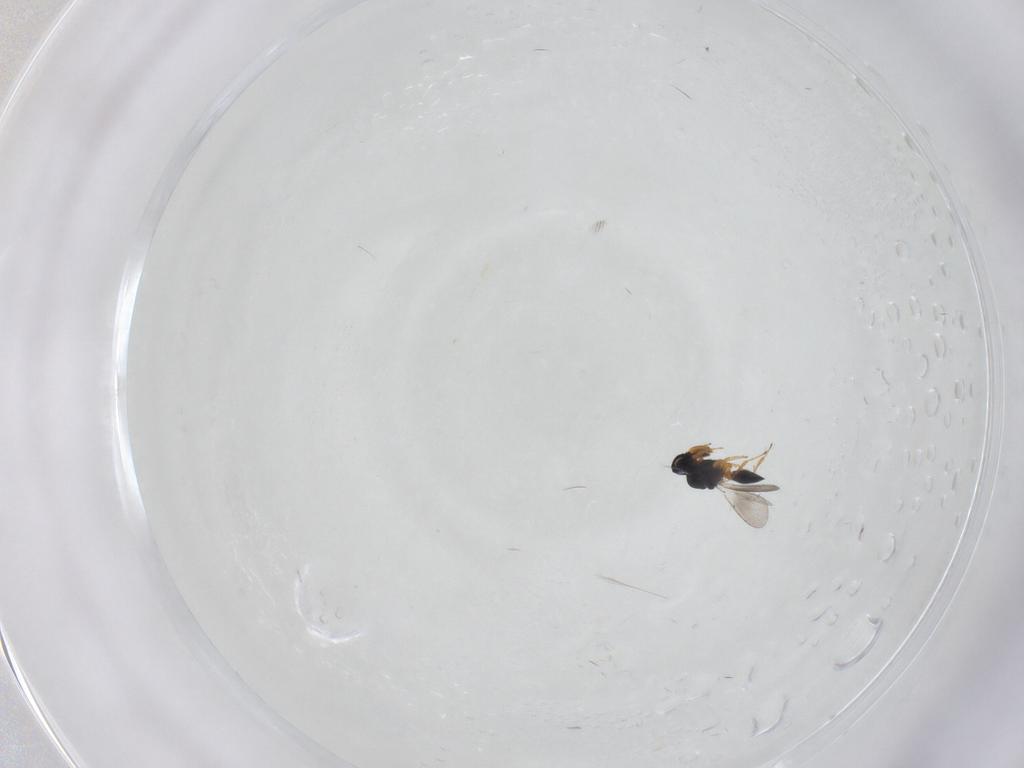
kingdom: Animalia
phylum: Arthropoda
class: Insecta
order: Hymenoptera
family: Platygastridae
